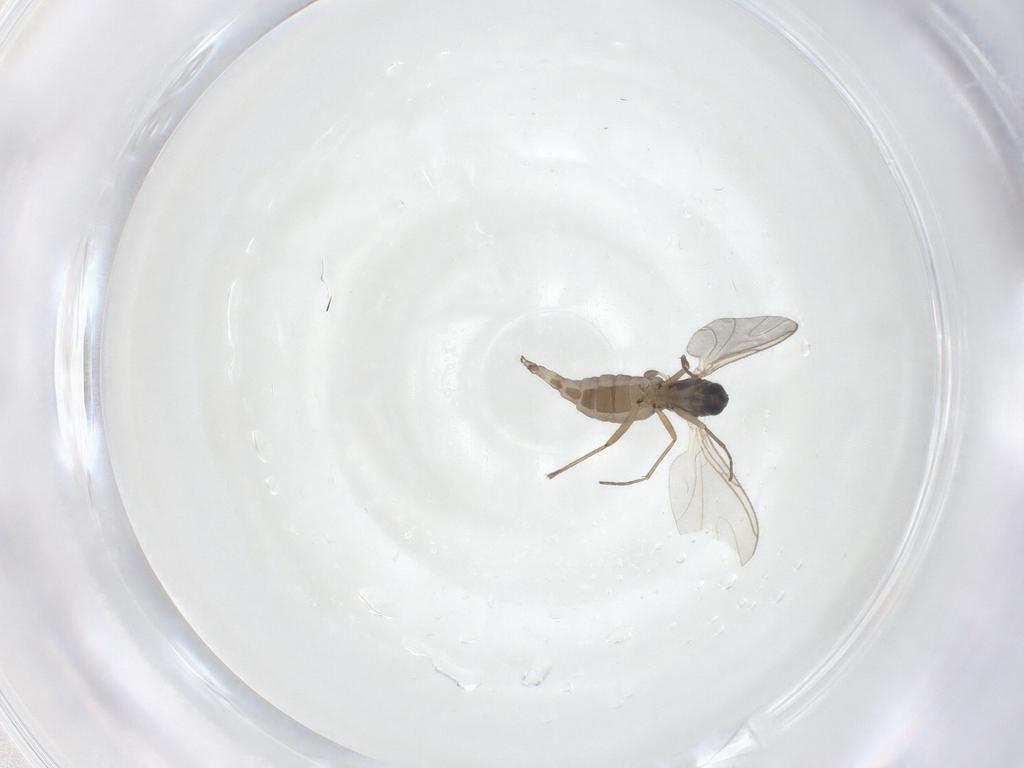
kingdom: Animalia
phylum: Arthropoda
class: Insecta
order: Diptera
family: Sciaridae
